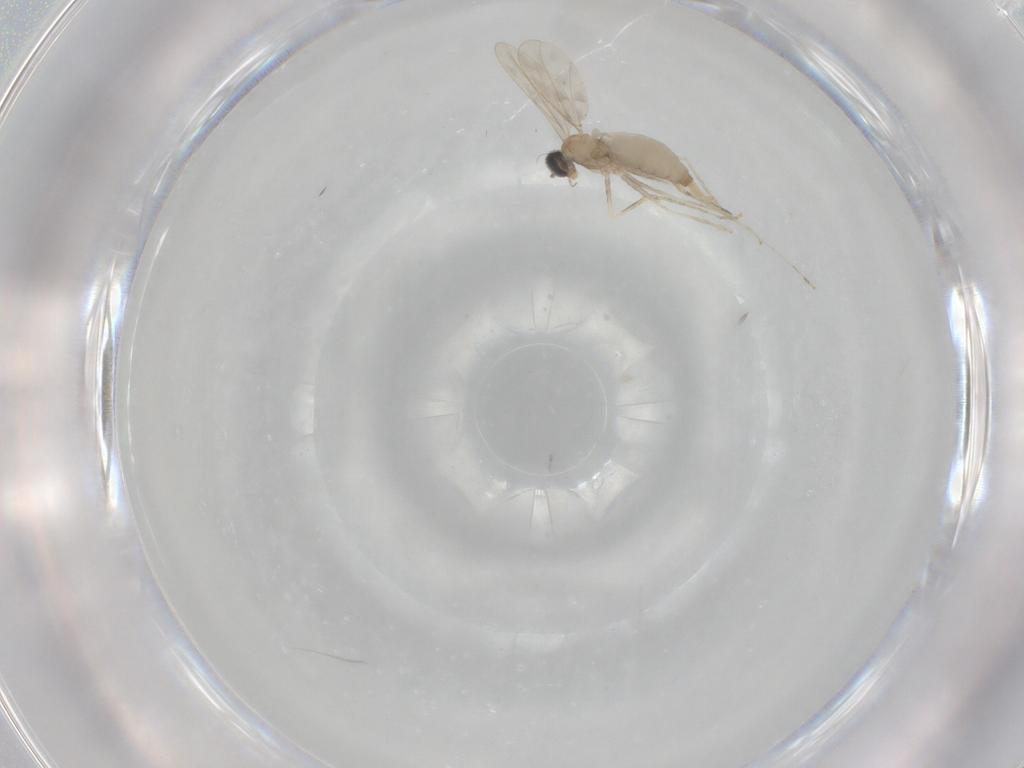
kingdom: Animalia
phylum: Arthropoda
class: Insecta
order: Diptera
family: Cecidomyiidae
